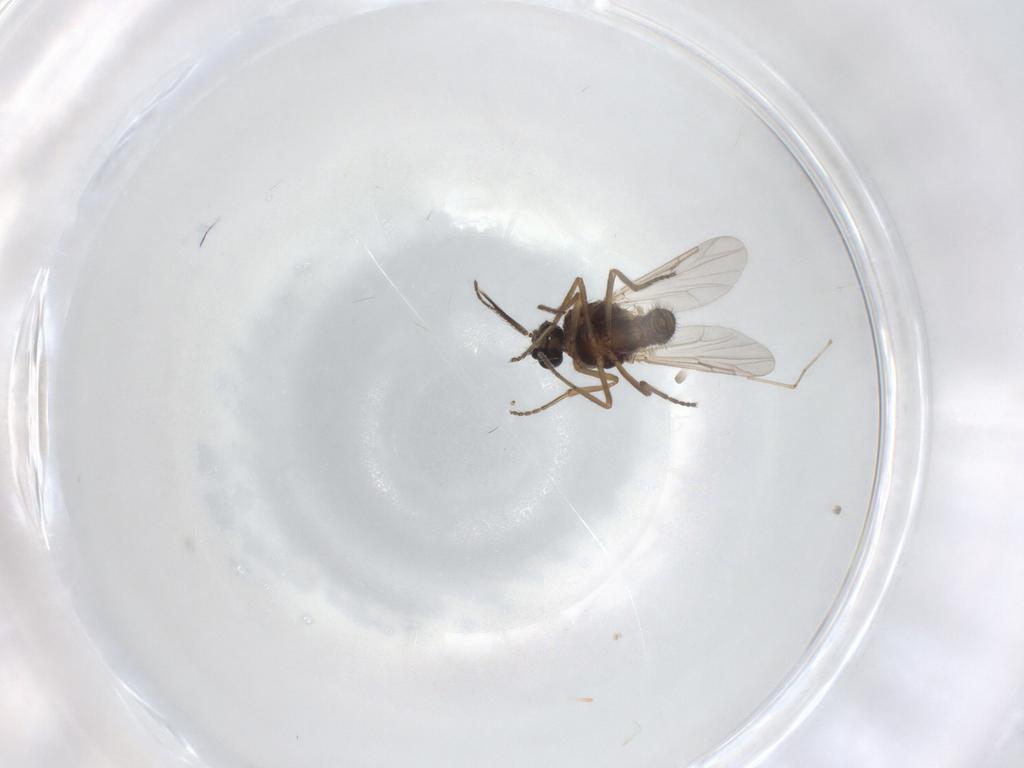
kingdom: Animalia
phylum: Arthropoda
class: Insecta
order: Diptera
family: Ceratopogonidae
